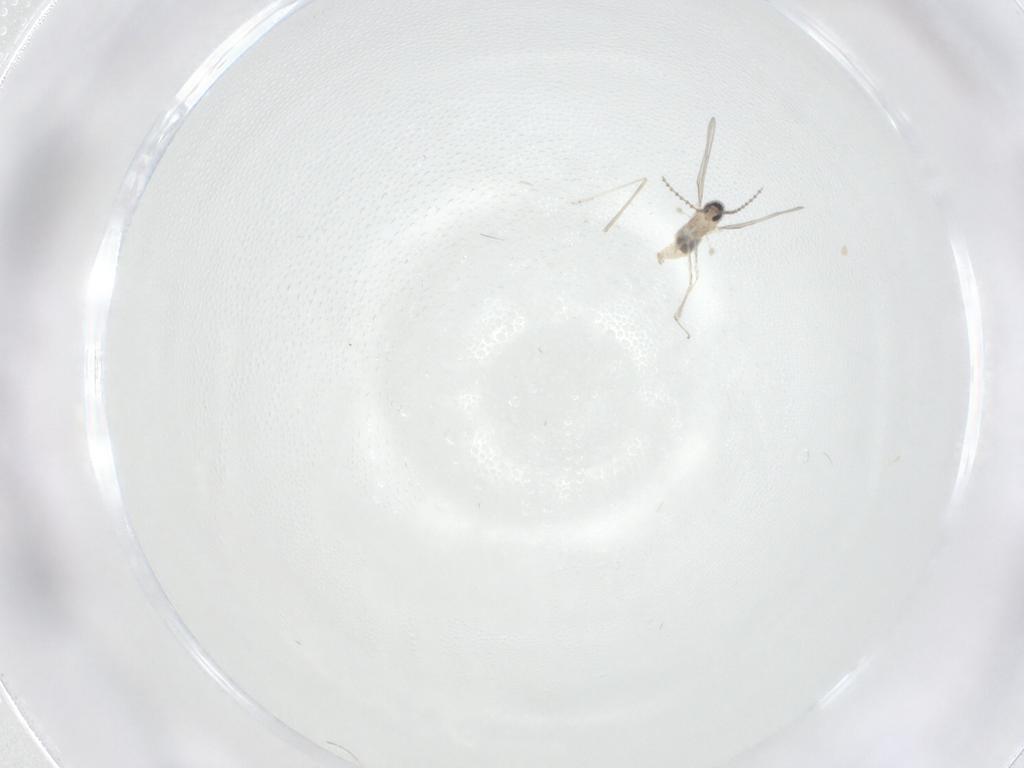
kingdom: Animalia
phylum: Arthropoda
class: Insecta
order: Diptera
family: Cecidomyiidae
